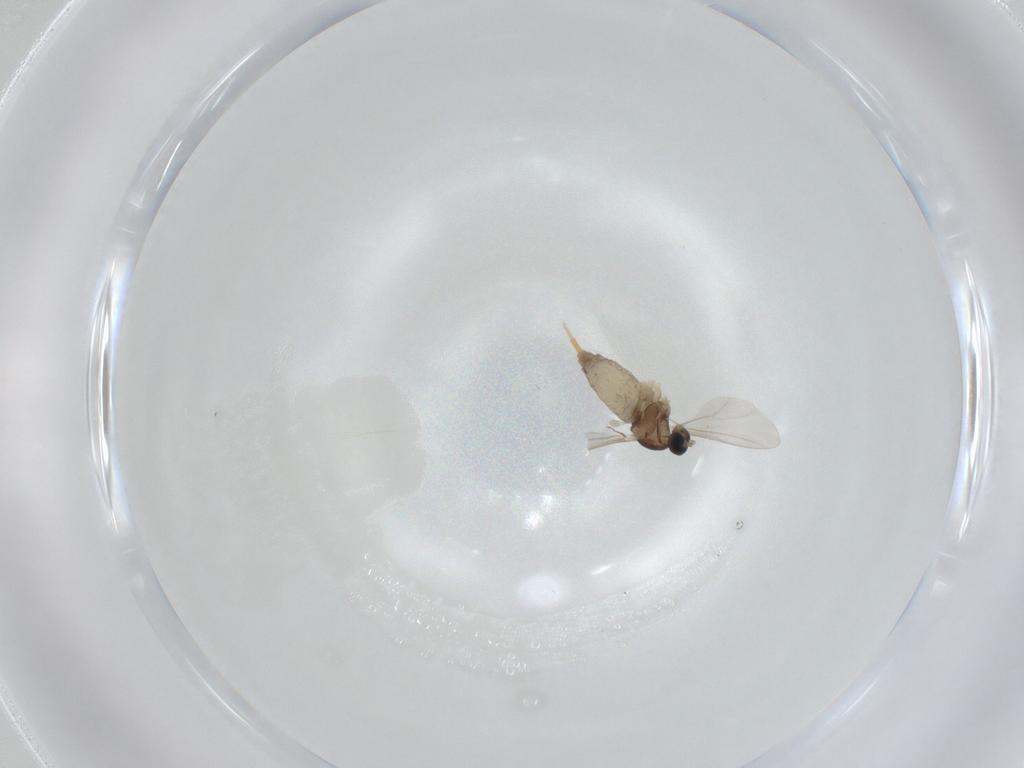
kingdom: Animalia
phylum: Arthropoda
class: Insecta
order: Diptera
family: Cecidomyiidae
